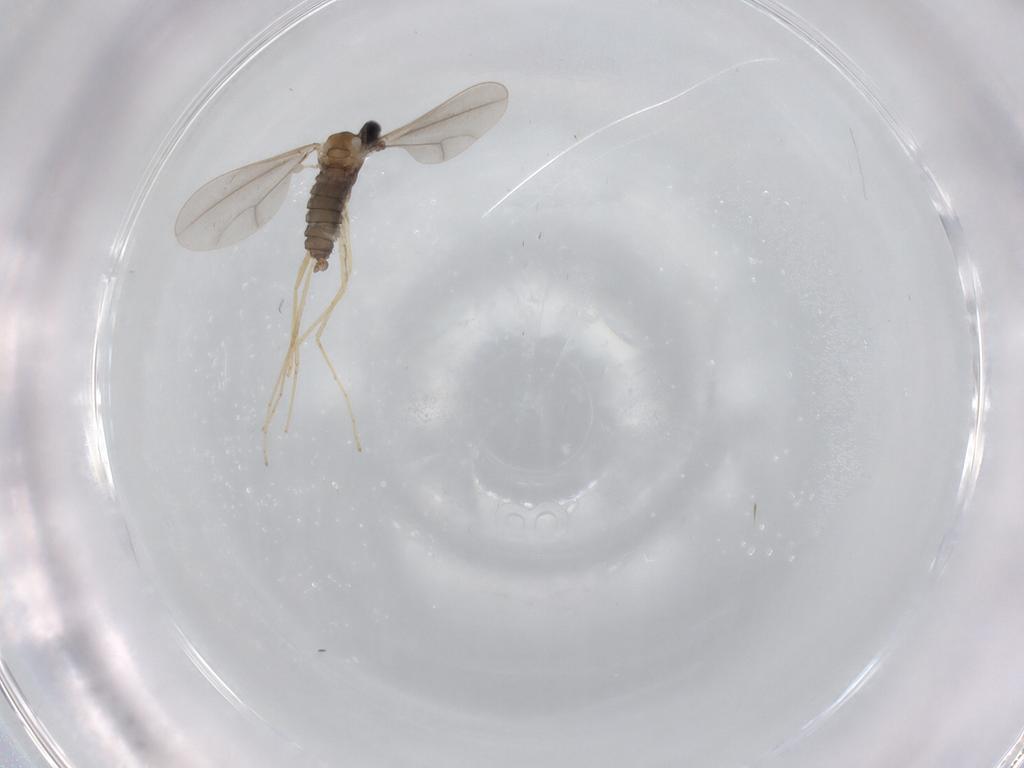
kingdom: Animalia
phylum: Arthropoda
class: Insecta
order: Diptera
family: Cecidomyiidae
